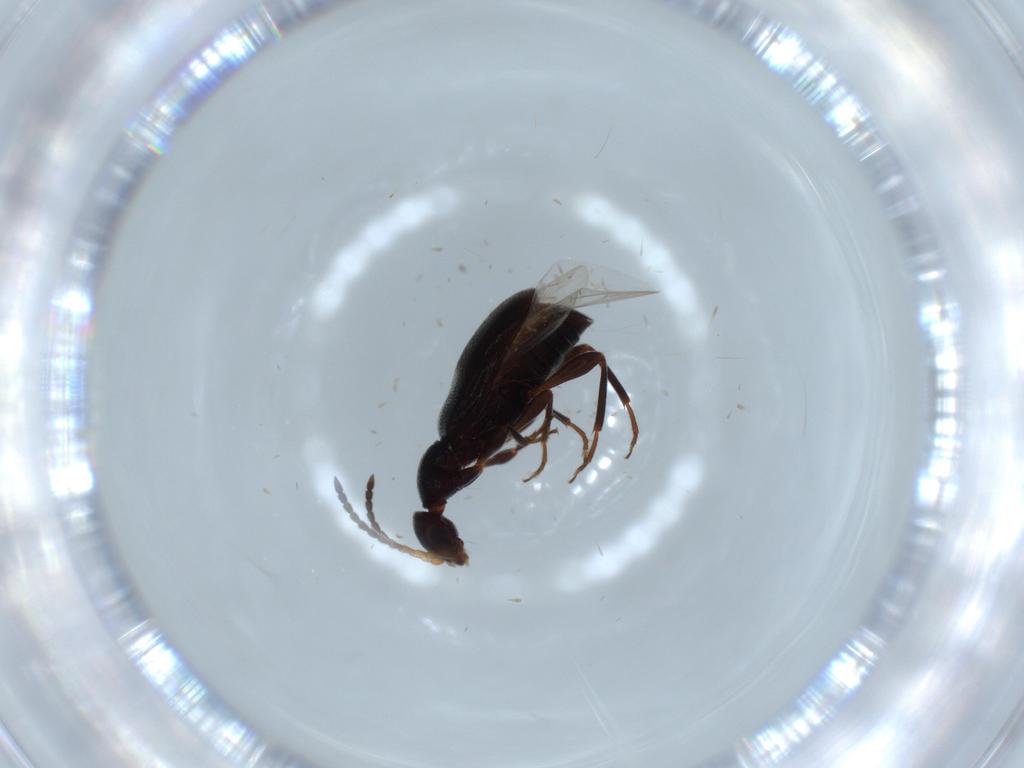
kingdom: Animalia
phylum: Arthropoda
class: Insecta
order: Coleoptera
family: Anthicidae
